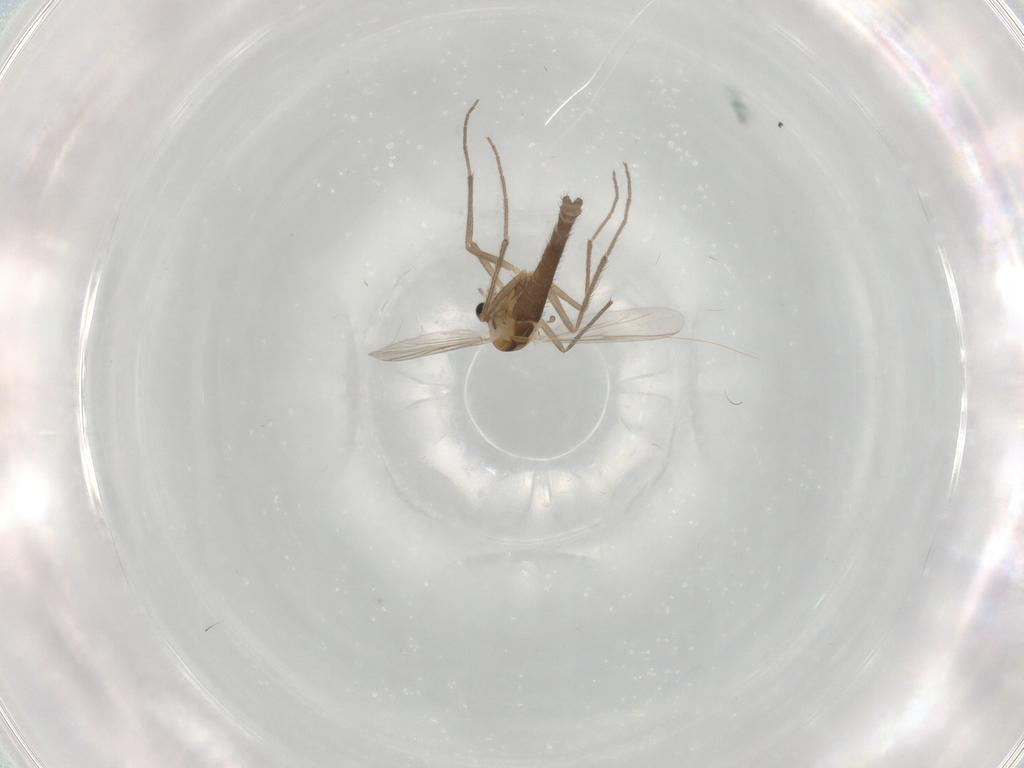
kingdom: Animalia
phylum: Arthropoda
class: Insecta
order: Diptera
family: Chironomidae
